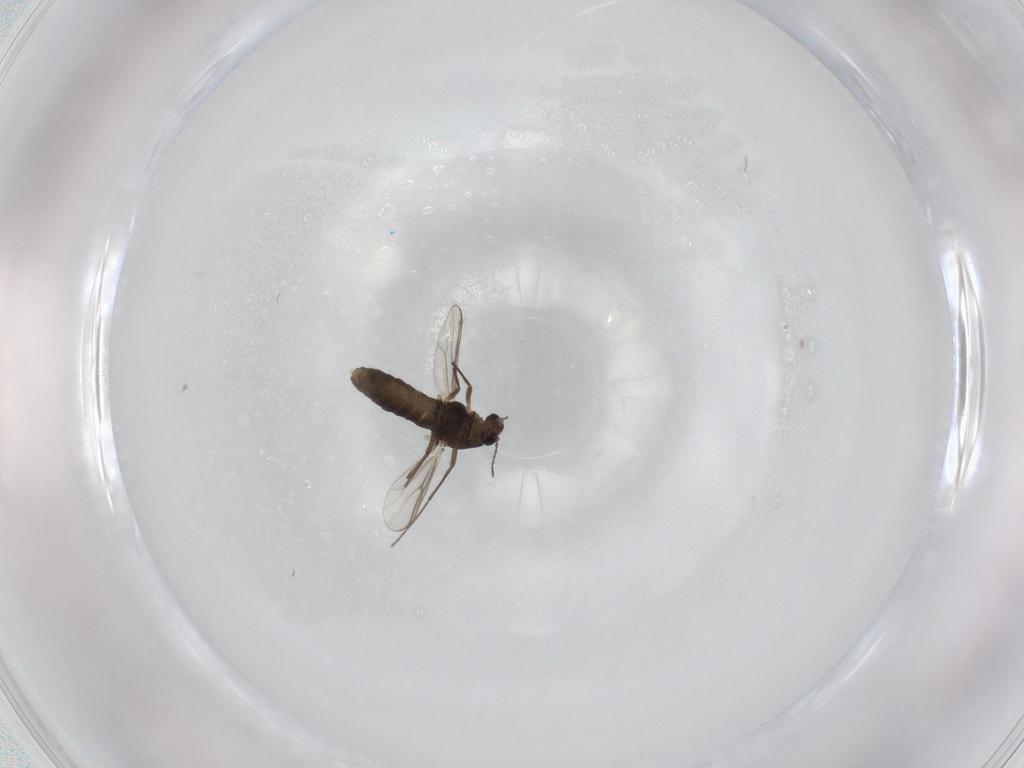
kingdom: Animalia
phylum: Arthropoda
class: Insecta
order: Diptera
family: Chironomidae
